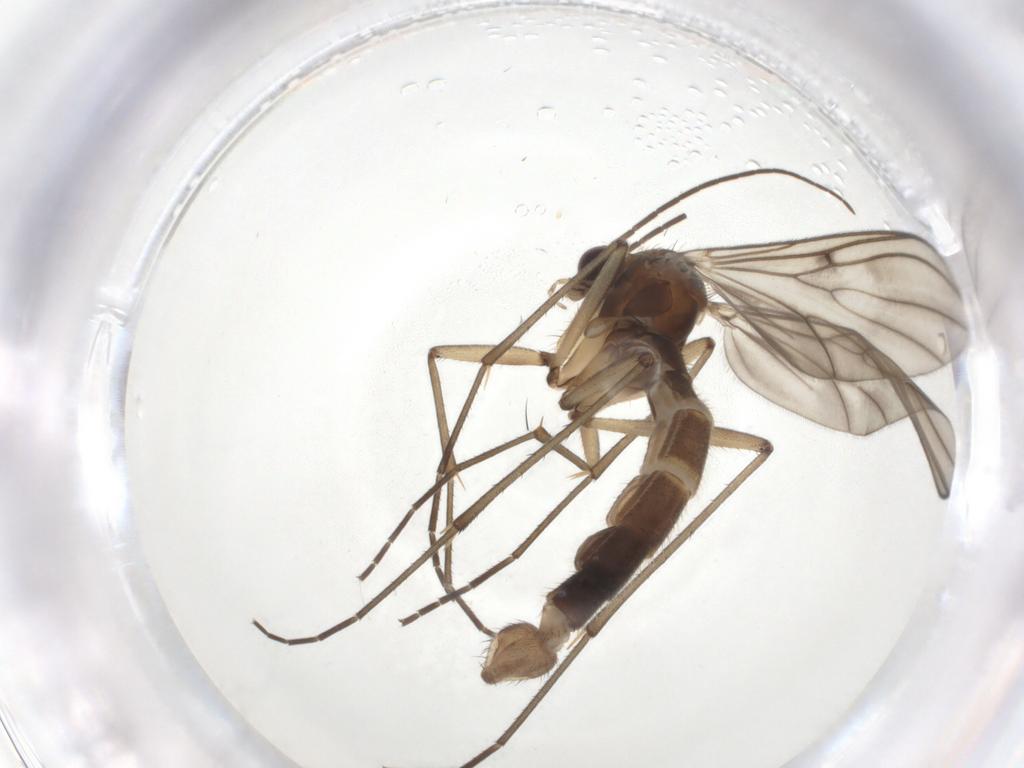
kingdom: Animalia
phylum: Arthropoda
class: Insecta
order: Diptera
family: Mycetophilidae
